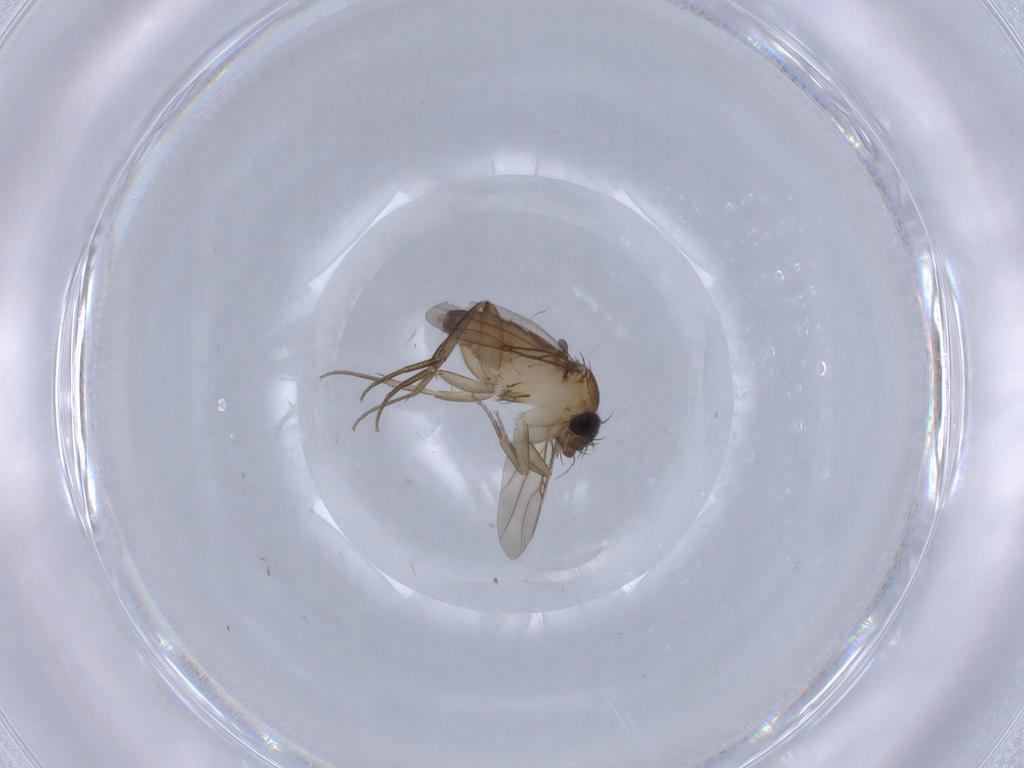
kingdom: Animalia
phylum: Arthropoda
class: Insecta
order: Diptera
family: Phoridae
